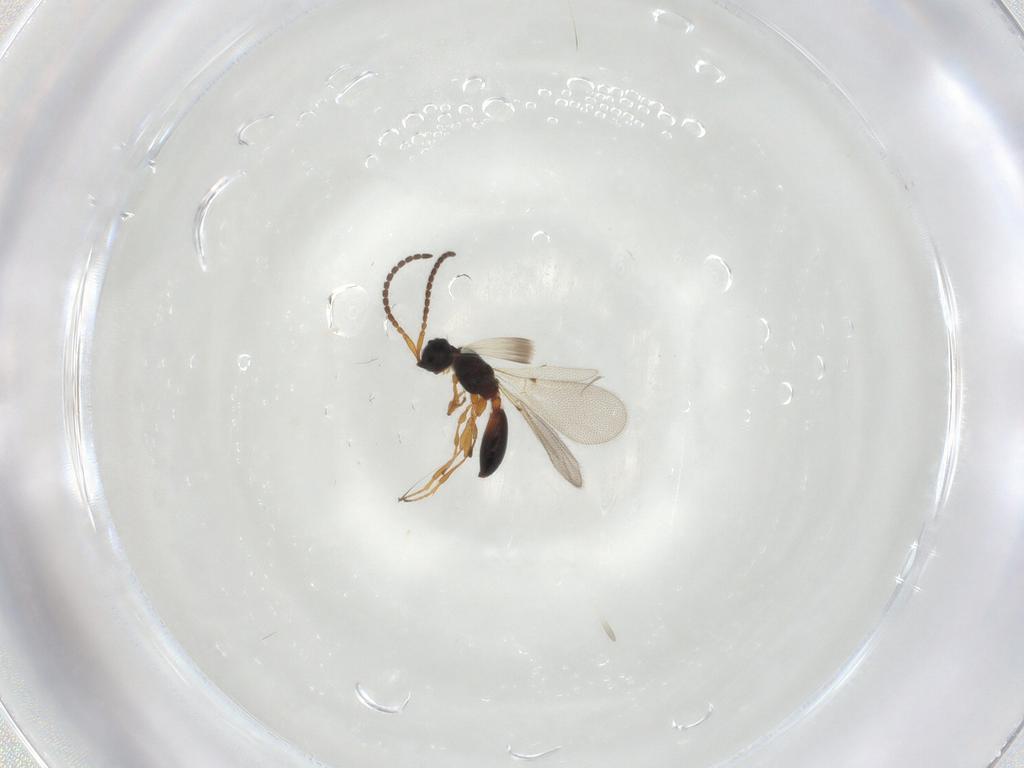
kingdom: Animalia
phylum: Arthropoda
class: Insecta
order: Hymenoptera
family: Diapriidae
